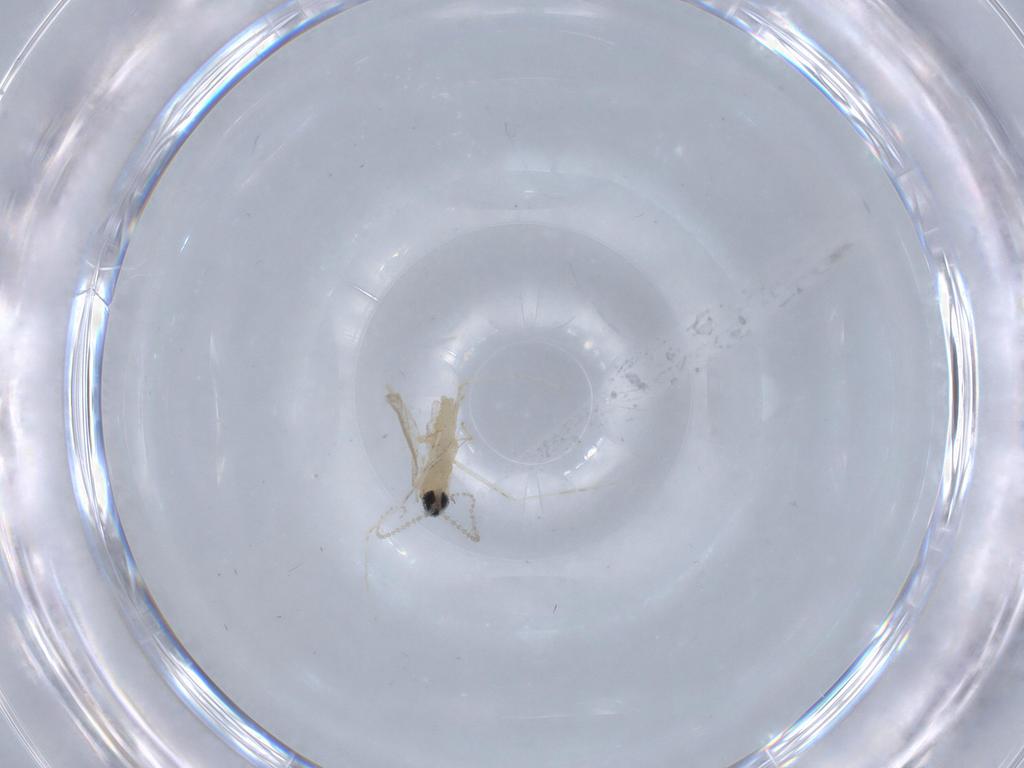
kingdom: Animalia
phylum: Arthropoda
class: Insecta
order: Diptera
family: Cecidomyiidae
